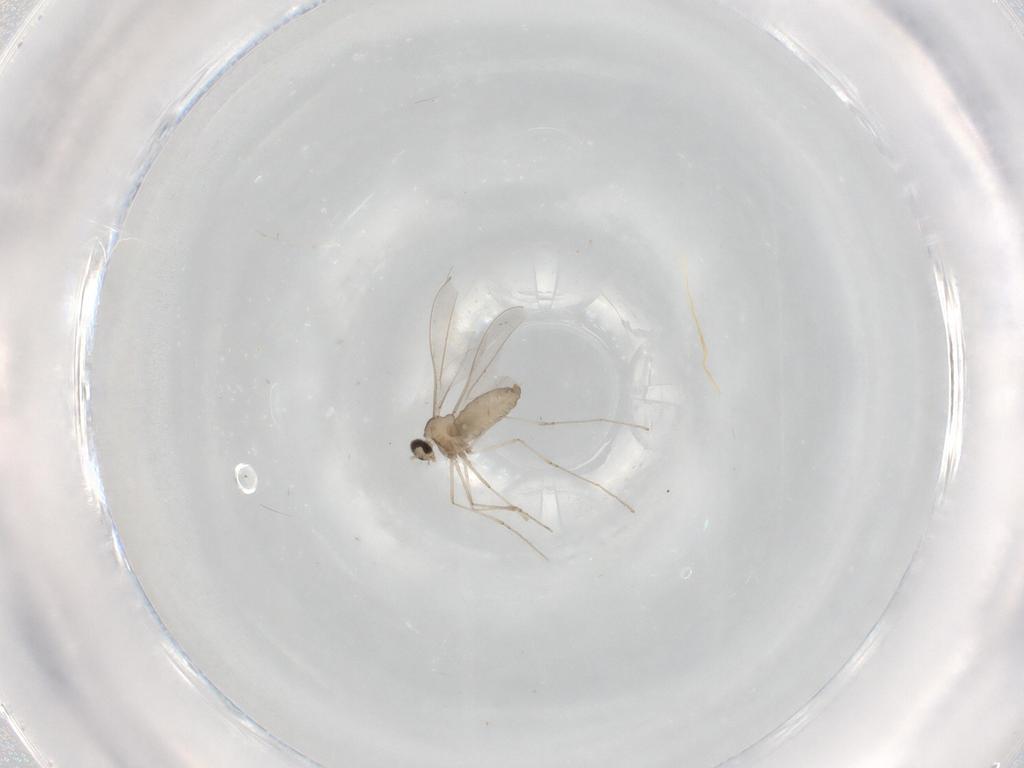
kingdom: Animalia
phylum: Arthropoda
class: Insecta
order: Diptera
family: Cecidomyiidae
